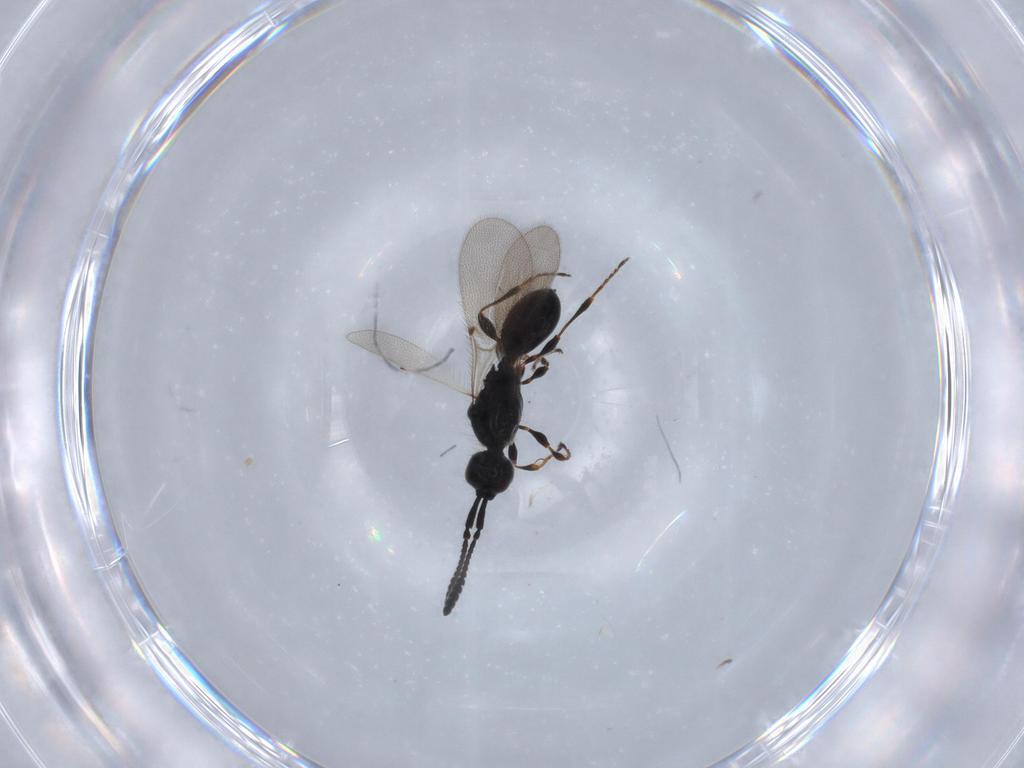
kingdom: Animalia
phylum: Arthropoda
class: Insecta
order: Hymenoptera
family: Diapriidae
